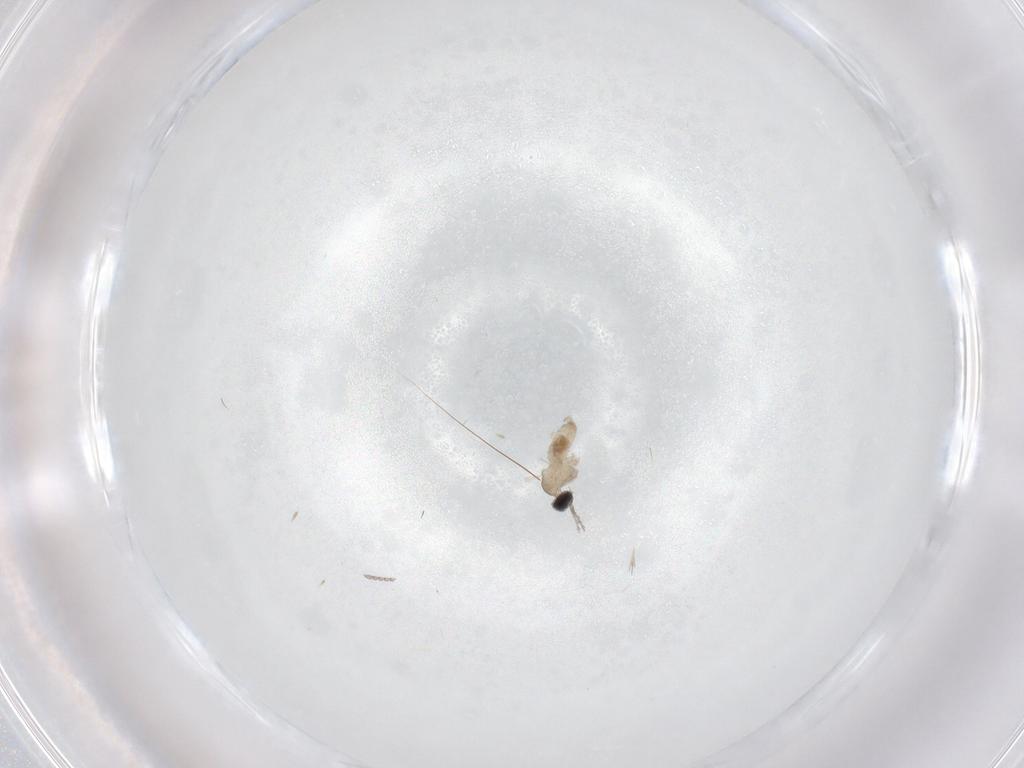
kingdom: Animalia
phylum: Arthropoda
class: Insecta
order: Diptera
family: Cecidomyiidae
